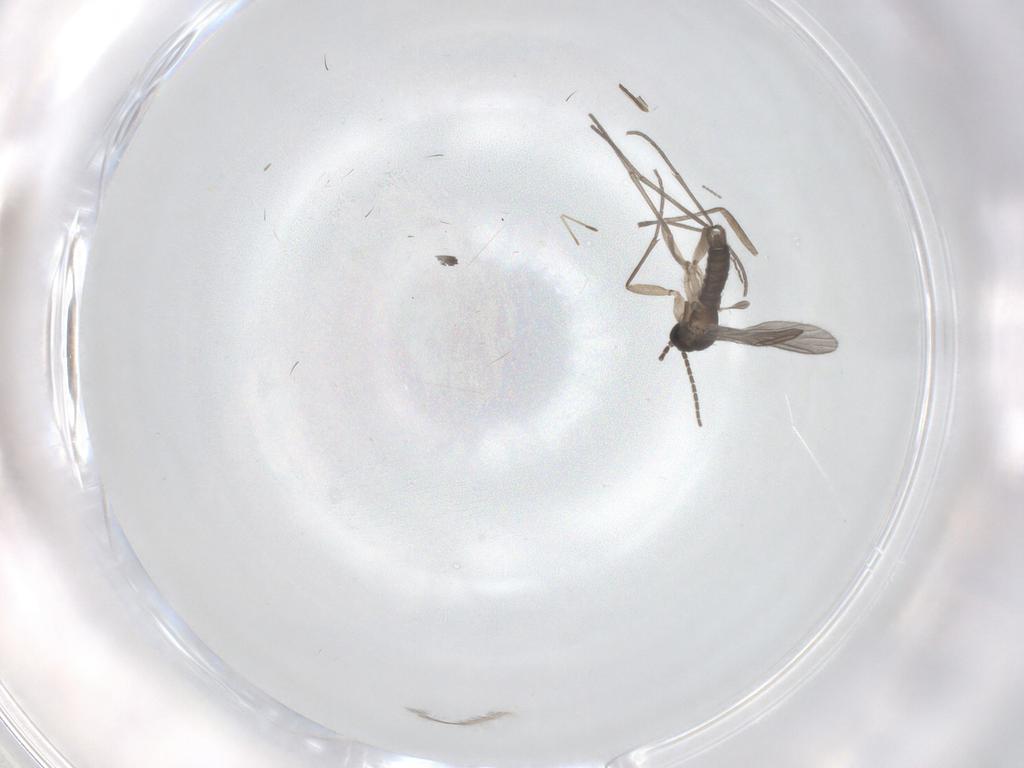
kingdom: Animalia
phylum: Arthropoda
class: Insecta
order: Diptera
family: Sciaridae
